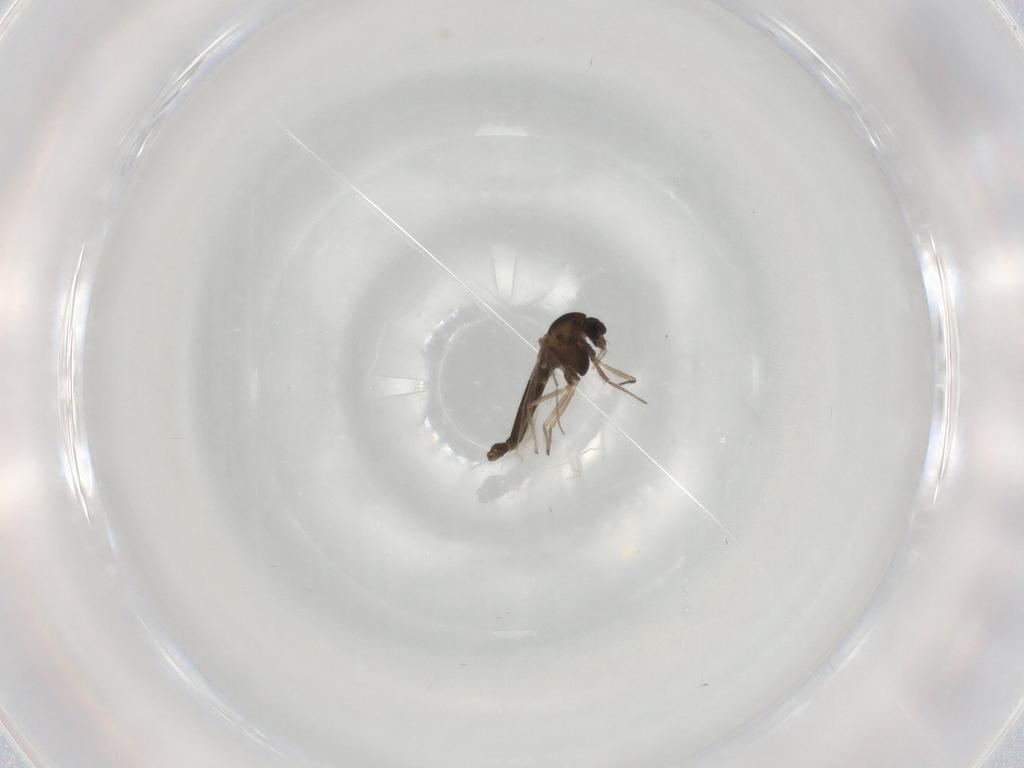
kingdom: Animalia
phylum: Arthropoda
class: Insecta
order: Diptera
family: Chironomidae
